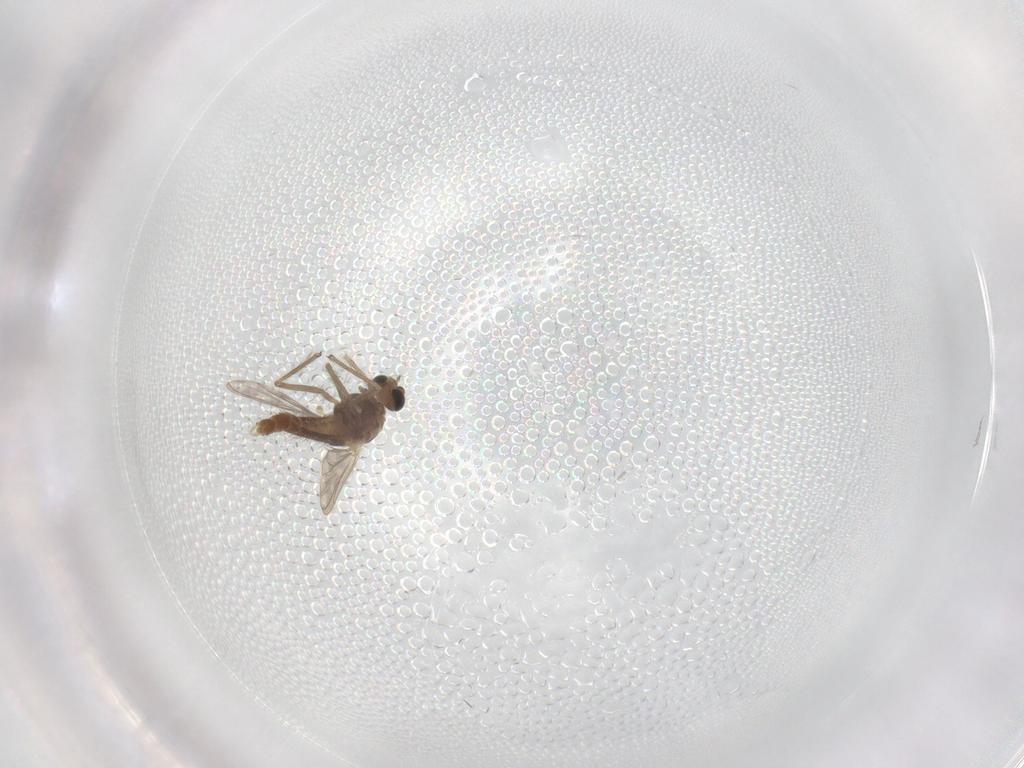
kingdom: Animalia
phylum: Arthropoda
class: Insecta
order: Diptera
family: Chironomidae
